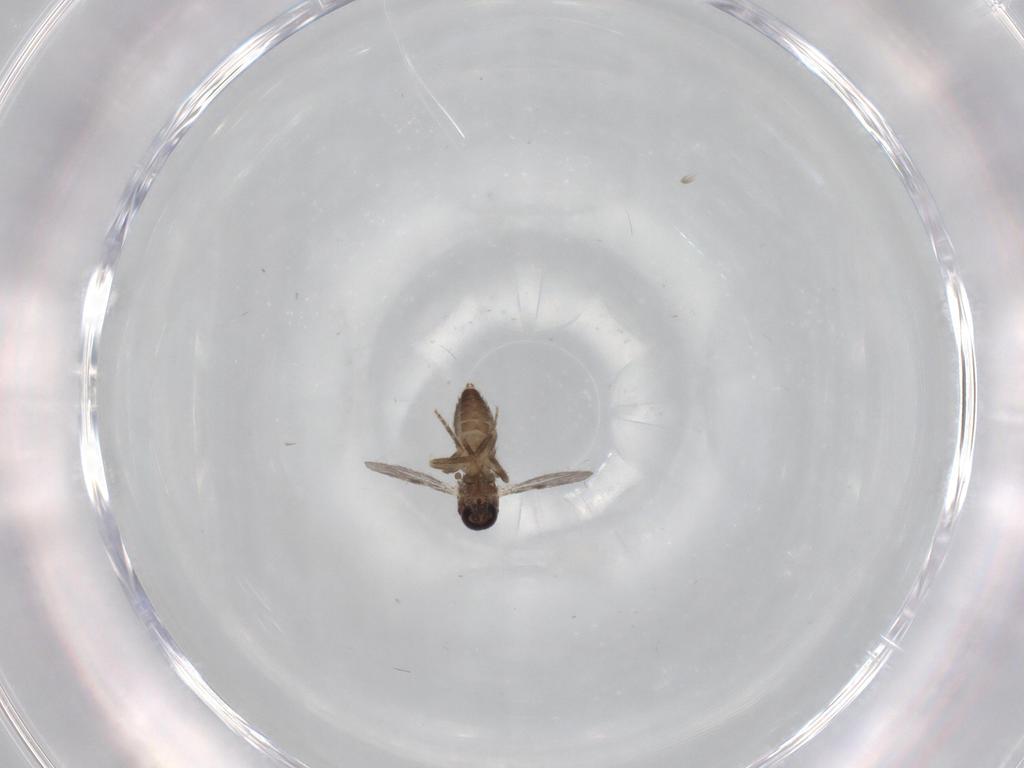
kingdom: Animalia
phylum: Arthropoda
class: Insecta
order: Diptera
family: Ceratopogonidae
